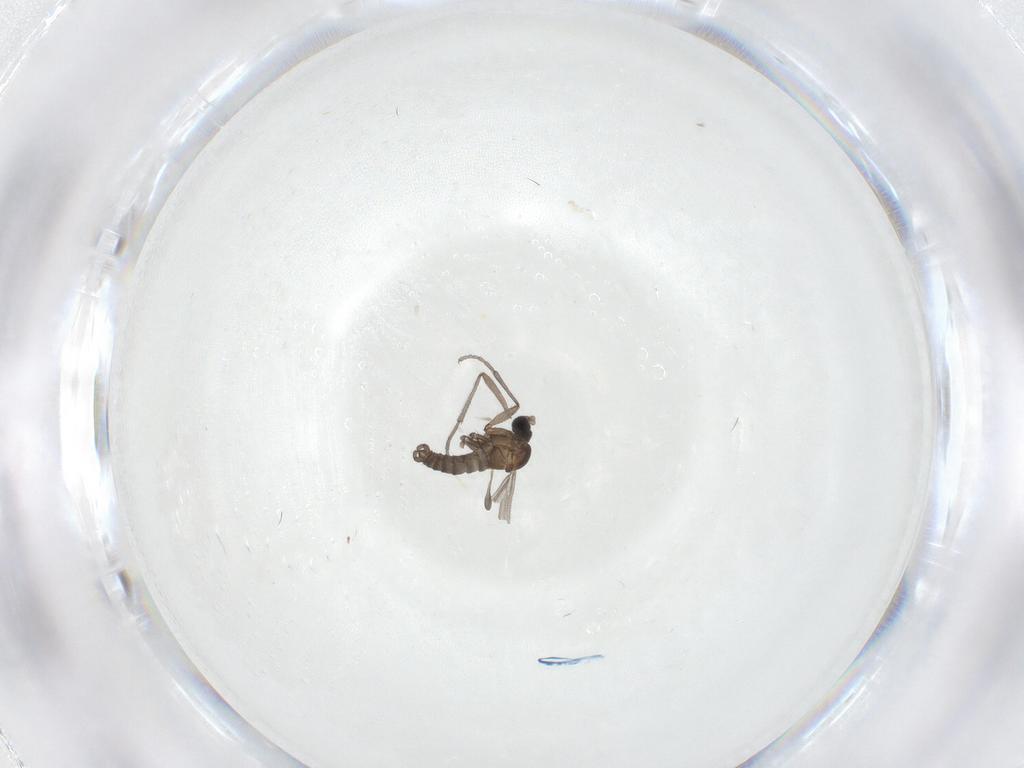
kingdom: Animalia
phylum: Arthropoda
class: Insecta
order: Diptera
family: Sciaridae
